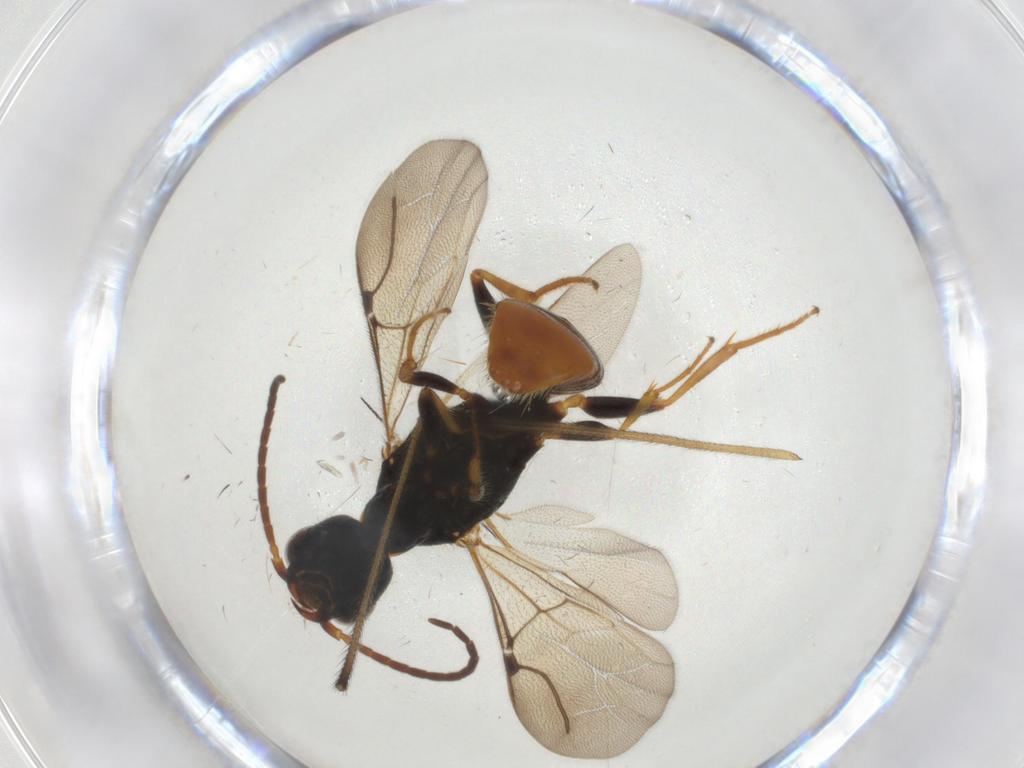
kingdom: Animalia
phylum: Arthropoda
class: Insecta
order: Hymenoptera
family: Bethylidae
